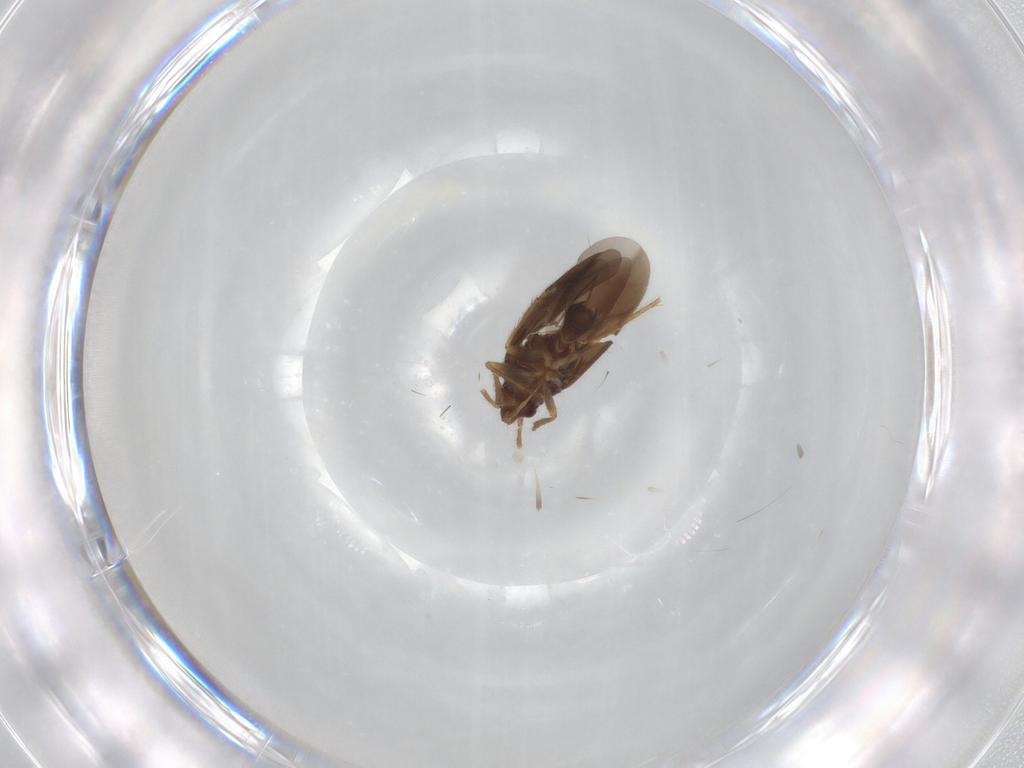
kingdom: Animalia
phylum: Arthropoda
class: Insecta
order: Hemiptera
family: Ceratocombidae
